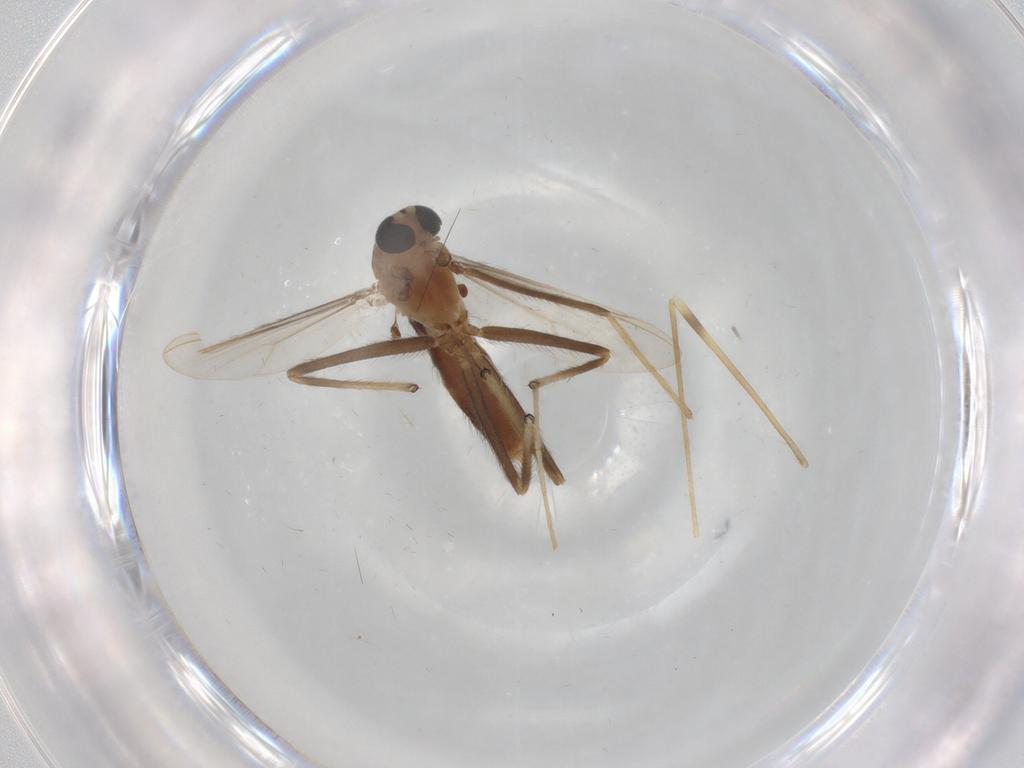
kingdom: Animalia
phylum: Arthropoda
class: Insecta
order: Diptera
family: Chironomidae
